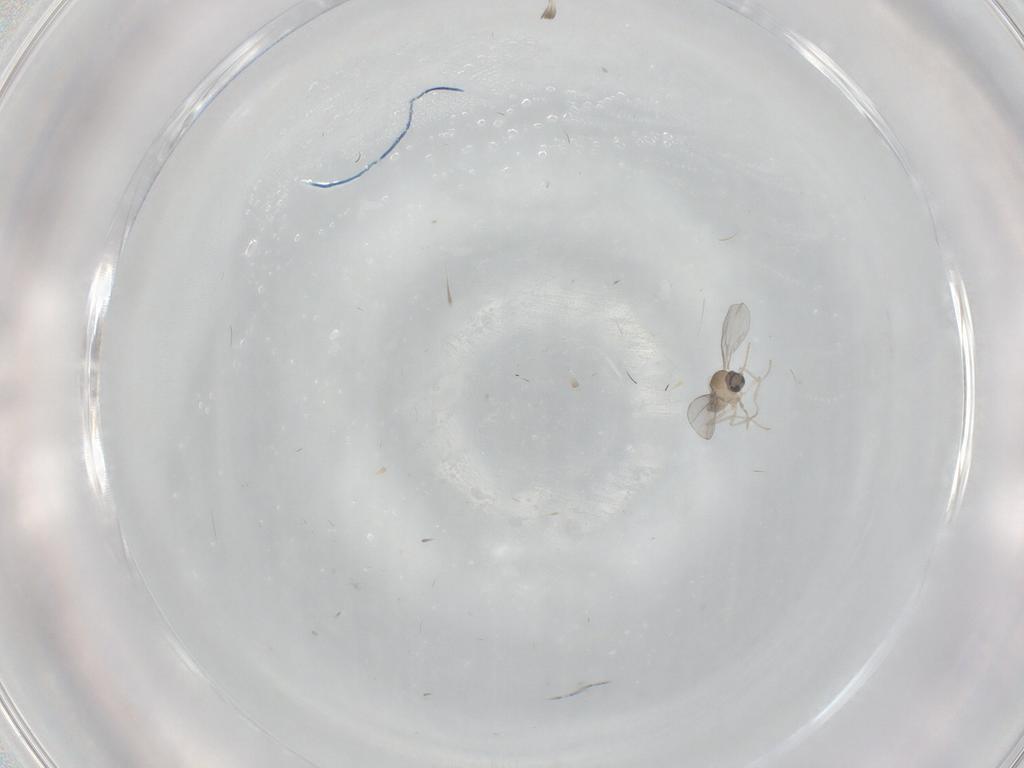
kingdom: Animalia
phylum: Arthropoda
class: Insecta
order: Diptera
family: Cecidomyiidae
